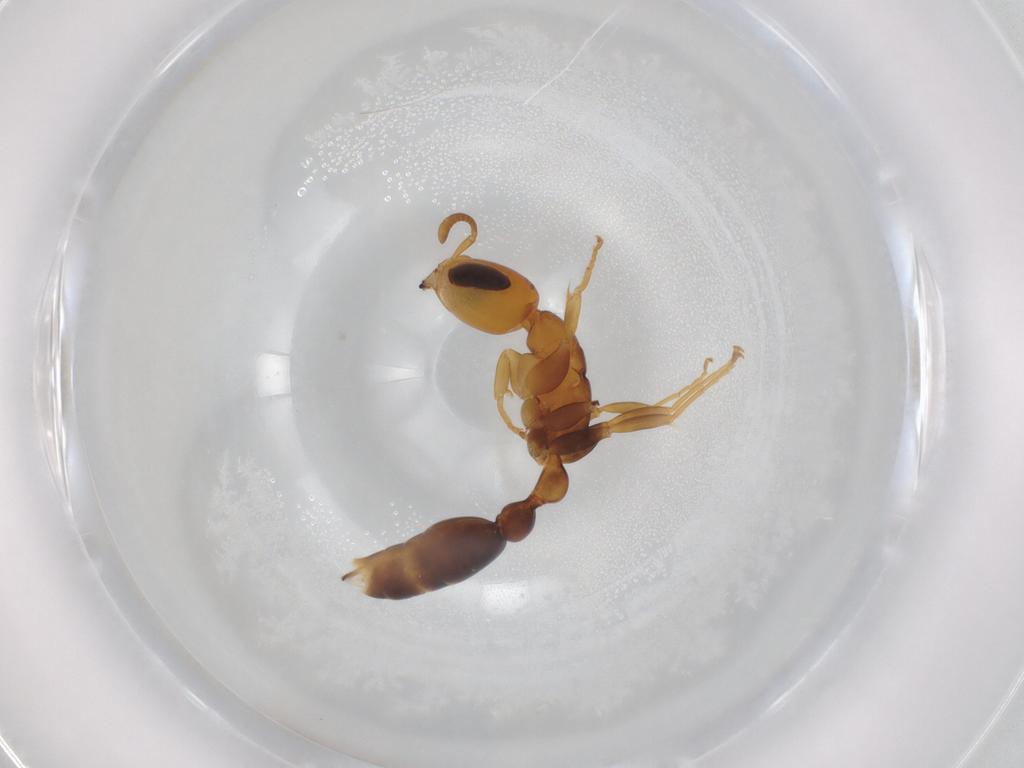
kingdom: Animalia
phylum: Arthropoda
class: Insecta
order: Hymenoptera
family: Formicidae
